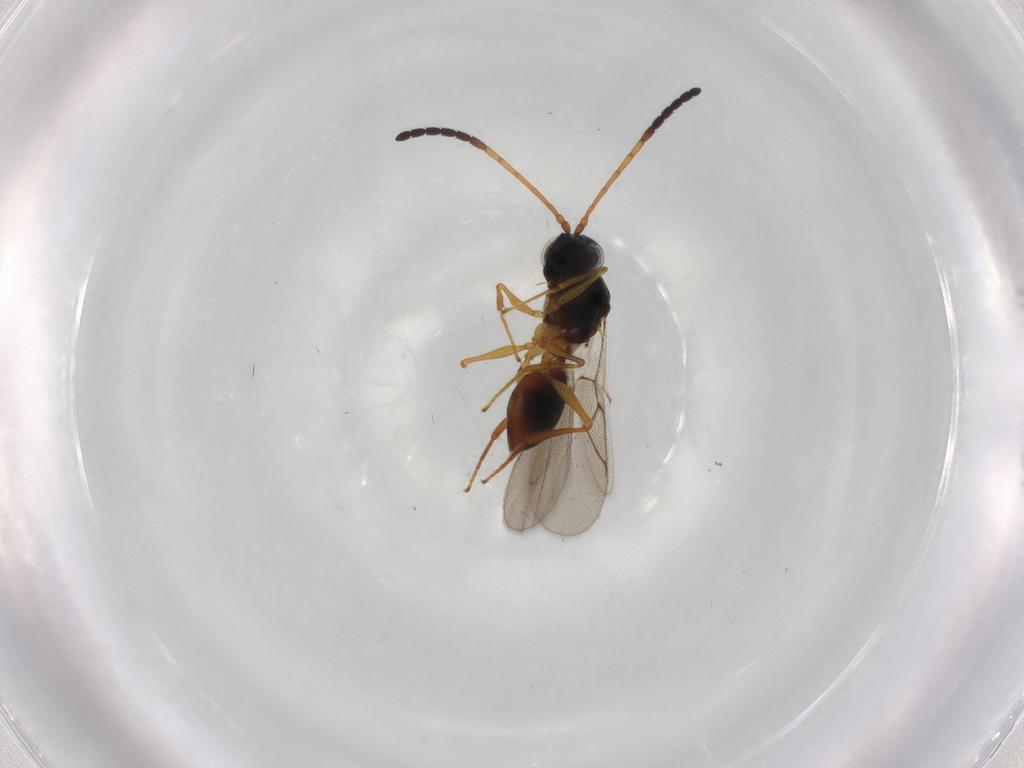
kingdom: Animalia
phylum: Arthropoda
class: Insecta
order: Hymenoptera
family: Figitidae
